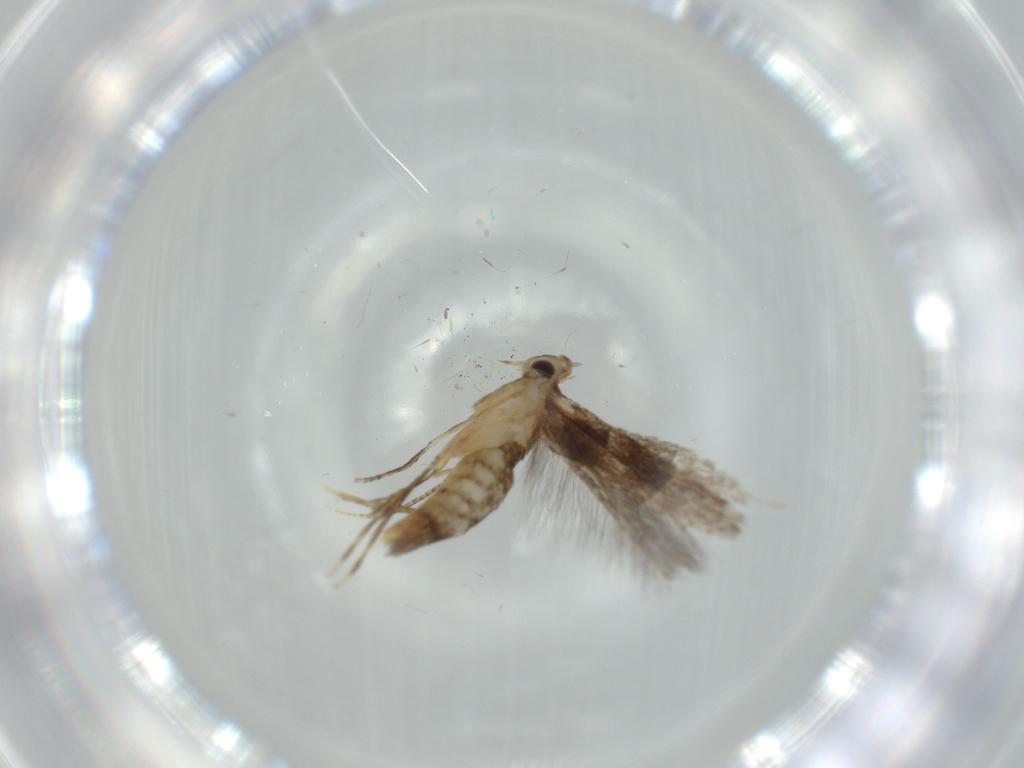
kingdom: Animalia
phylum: Arthropoda
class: Insecta
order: Lepidoptera
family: Gracillariidae
